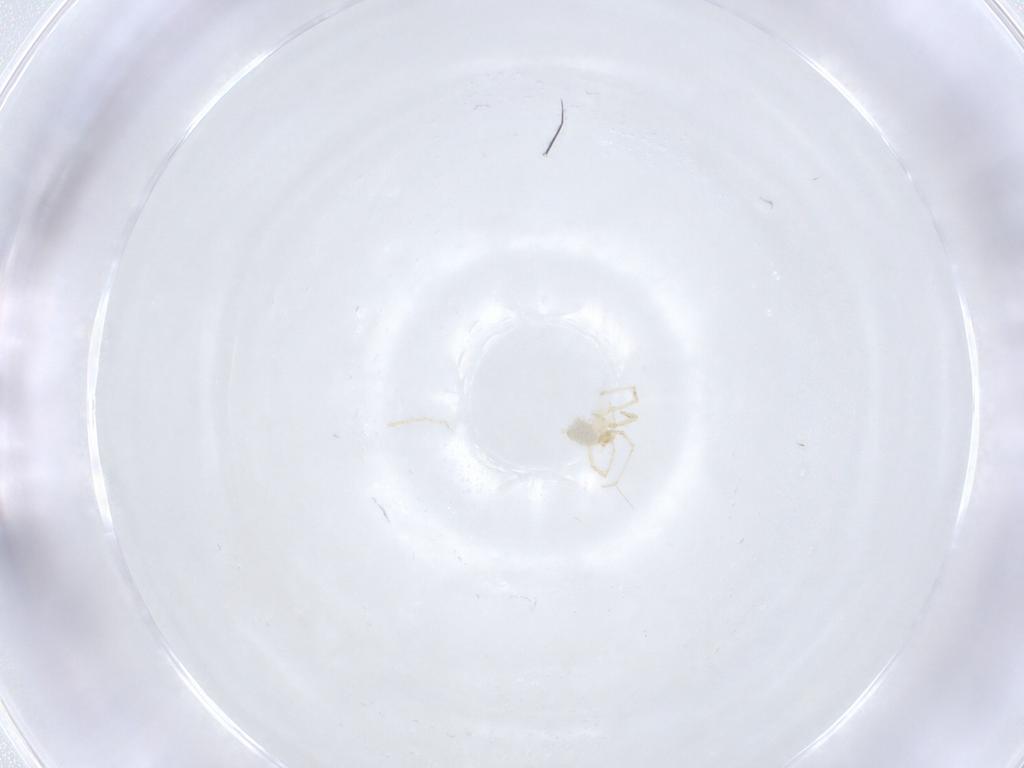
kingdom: Animalia
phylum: Arthropoda
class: Arachnida
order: Trombidiformes
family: Erythraeidae
